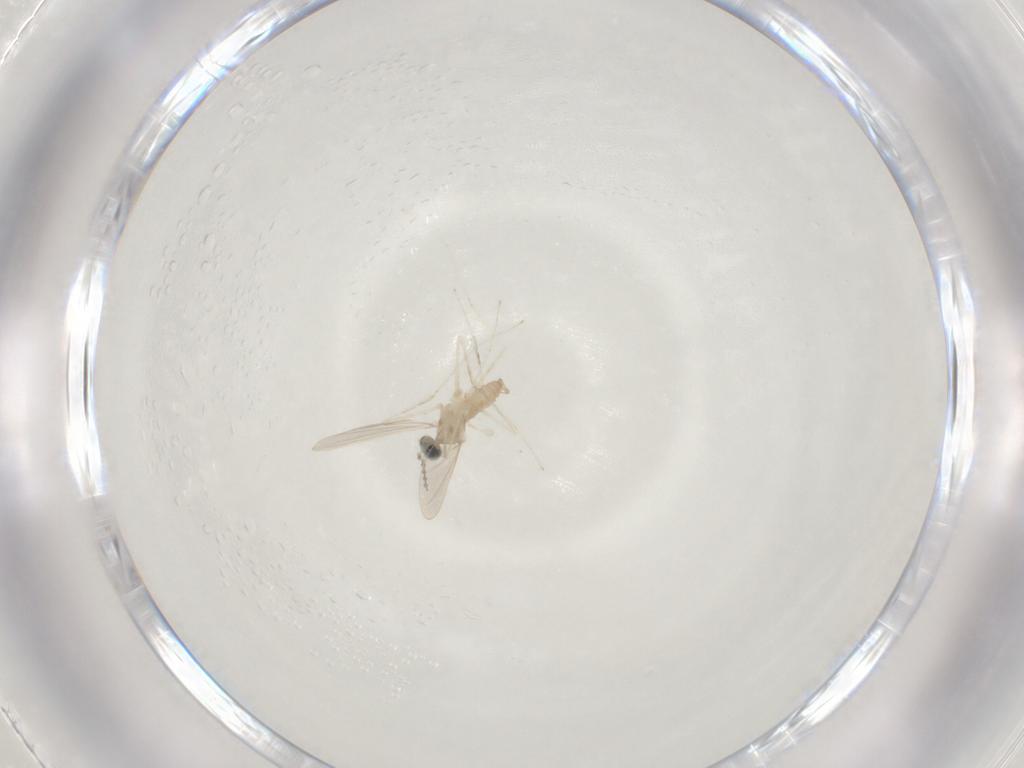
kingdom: Animalia
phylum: Arthropoda
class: Insecta
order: Diptera
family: Cecidomyiidae
